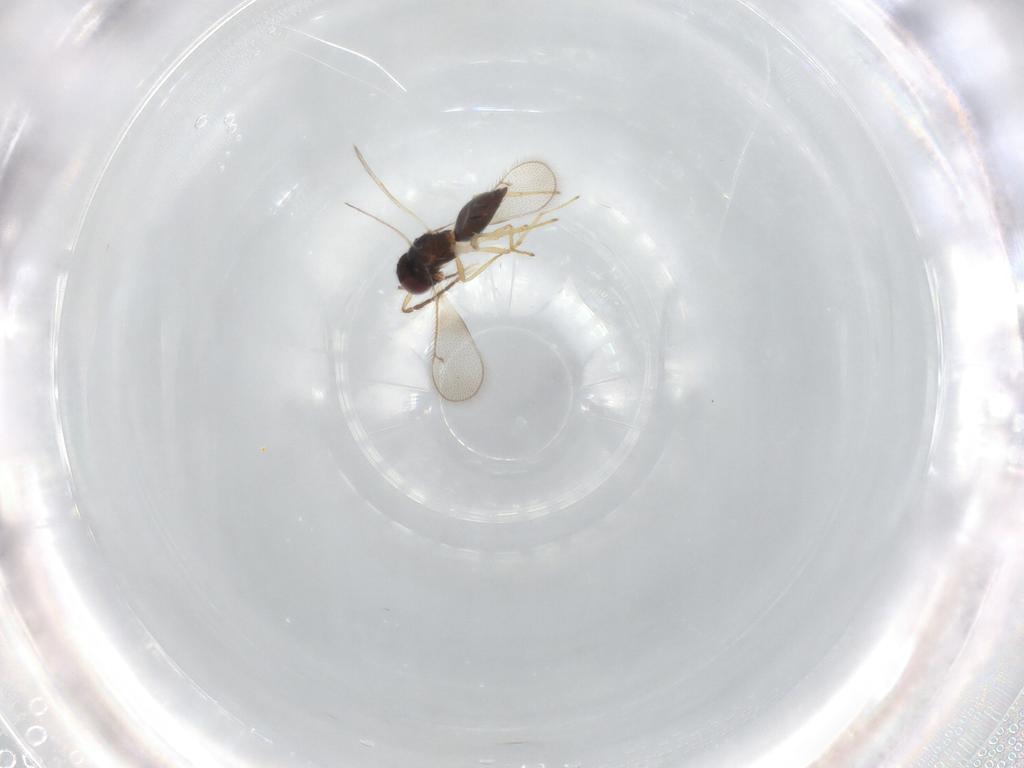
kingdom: Animalia
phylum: Arthropoda
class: Insecta
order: Hymenoptera
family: Eulophidae
